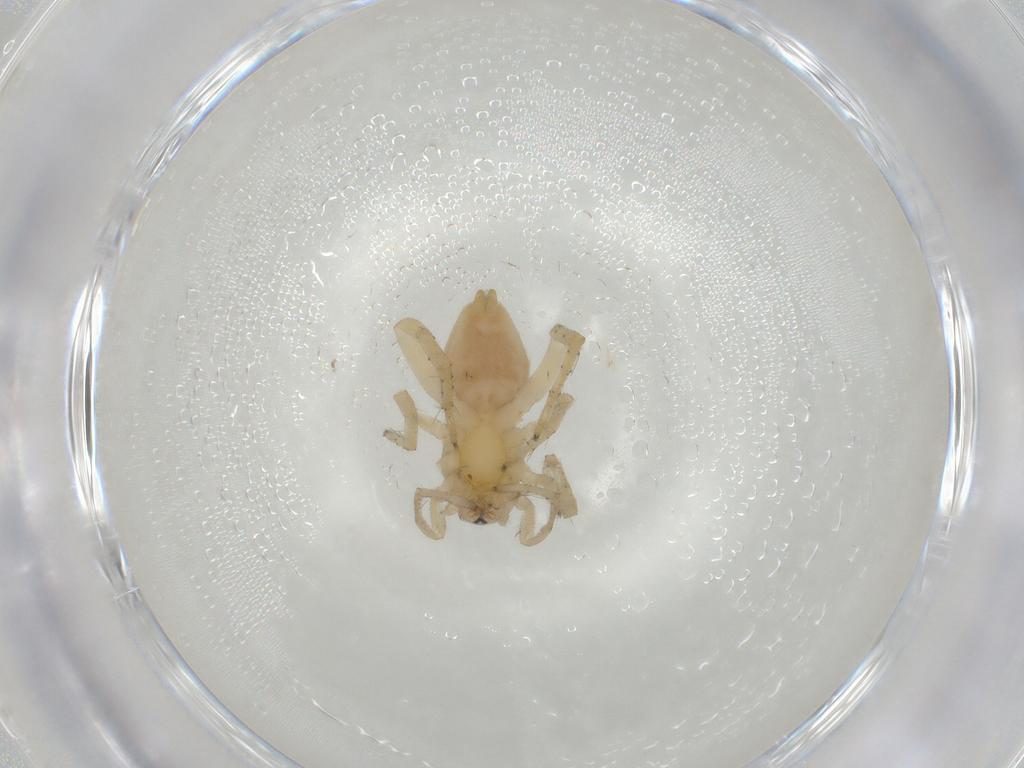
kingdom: Animalia
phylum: Arthropoda
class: Arachnida
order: Araneae
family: Clubionidae
